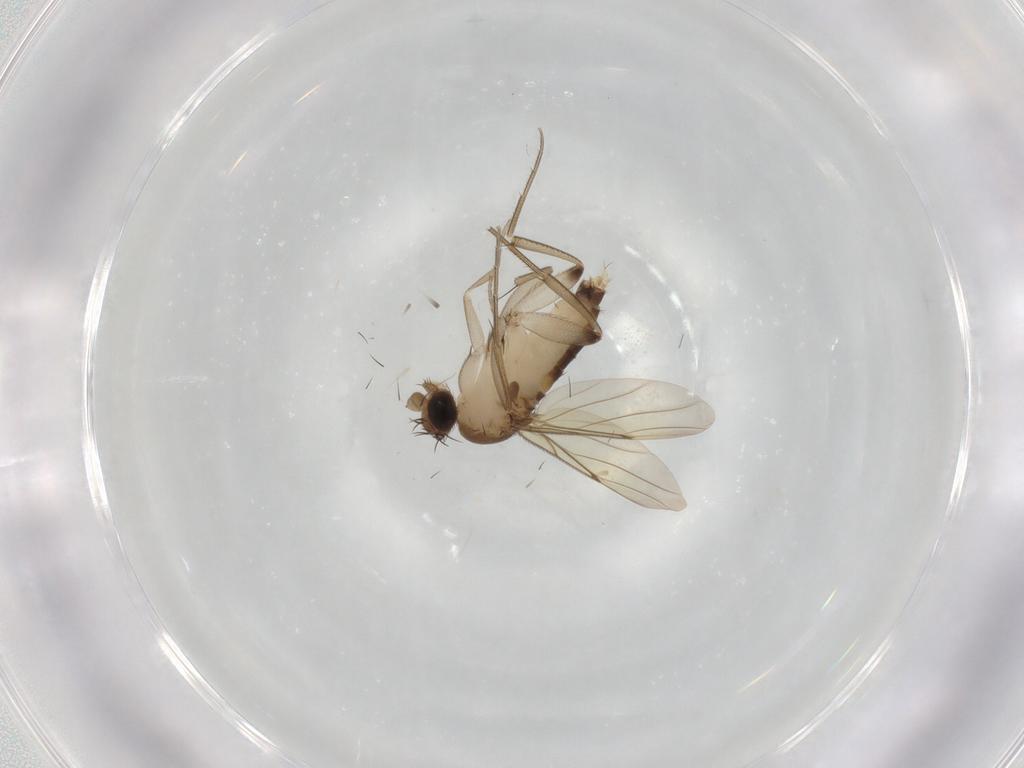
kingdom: Animalia
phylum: Arthropoda
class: Insecta
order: Diptera
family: Phoridae
